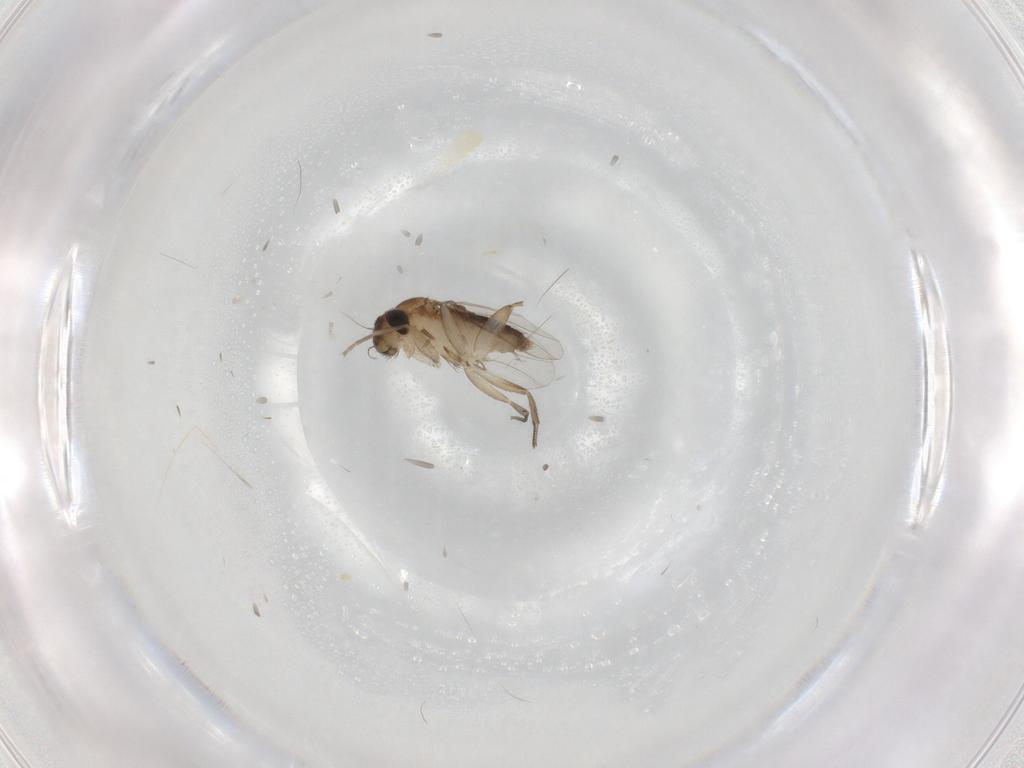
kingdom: Animalia
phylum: Arthropoda
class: Insecta
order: Diptera
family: Phoridae
